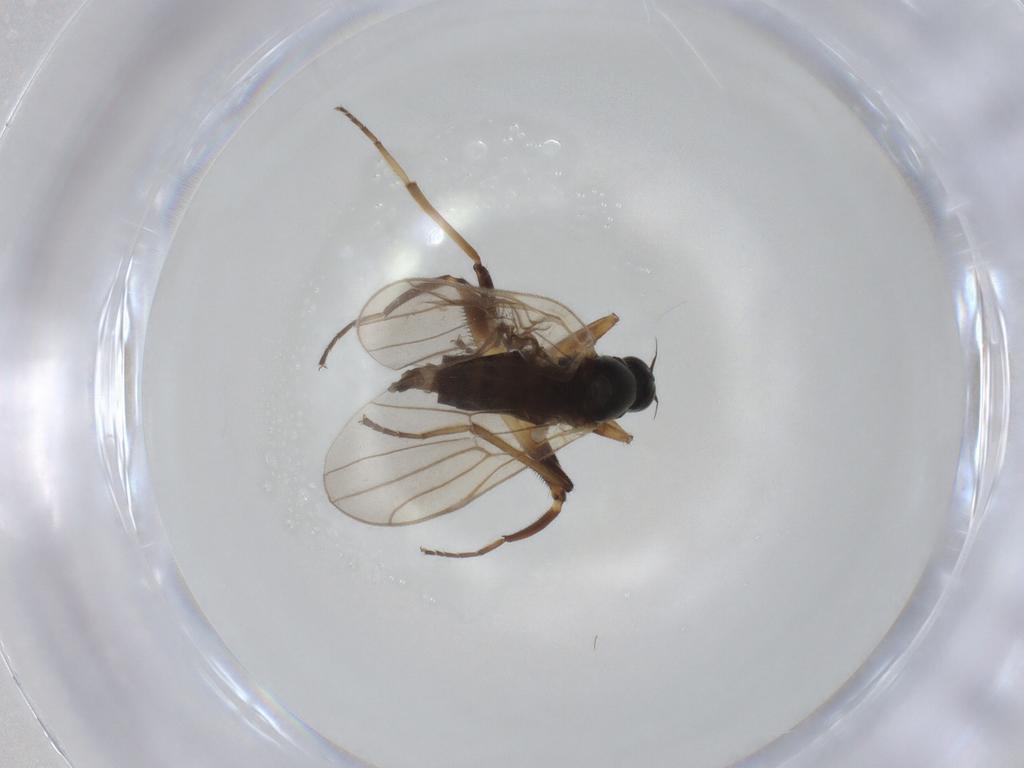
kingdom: Animalia
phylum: Arthropoda
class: Insecta
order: Diptera
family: Hybotidae
